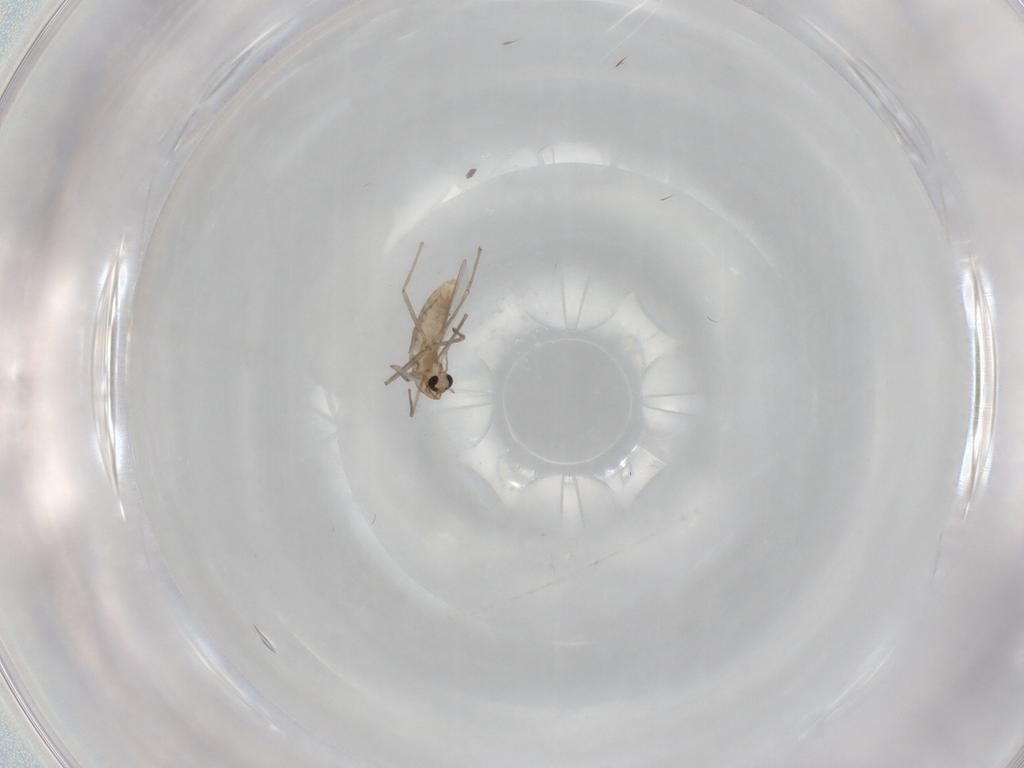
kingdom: Animalia
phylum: Arthropoda
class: Insecta
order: Diptera
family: Chironomidae
